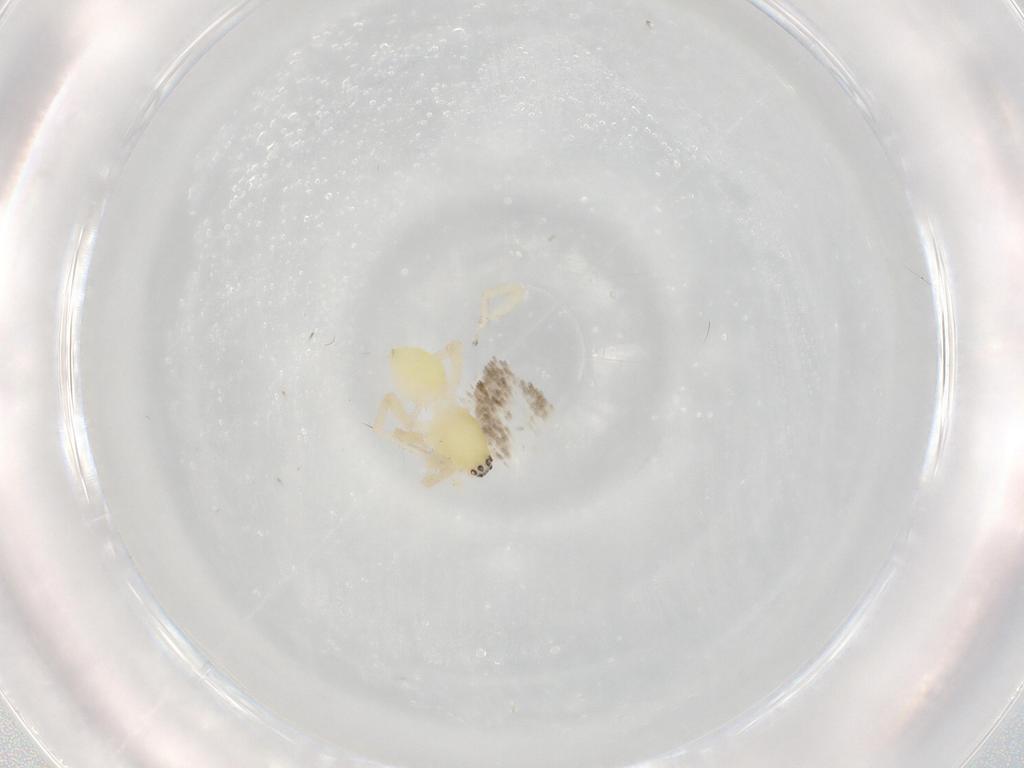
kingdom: Animalia
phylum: Arthropoda
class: Arachnida
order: Araneae
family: Anyphaenidae
